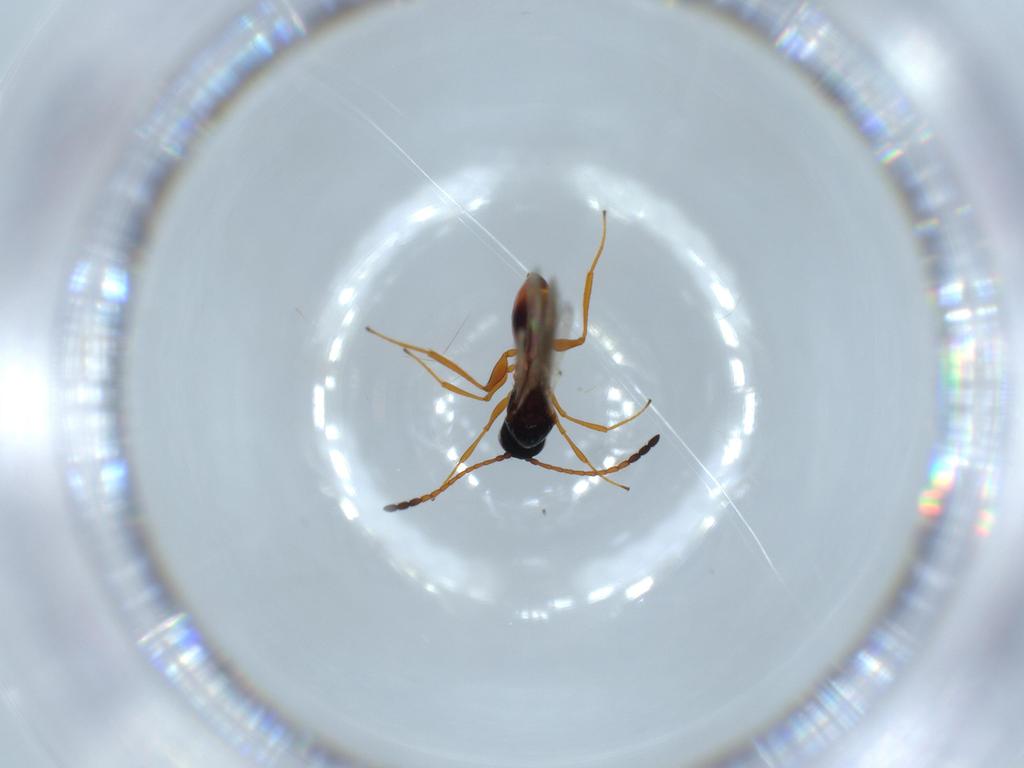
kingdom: Animalia
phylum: Arthropoda
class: Insecta
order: Hymenoptera
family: Figitidae
